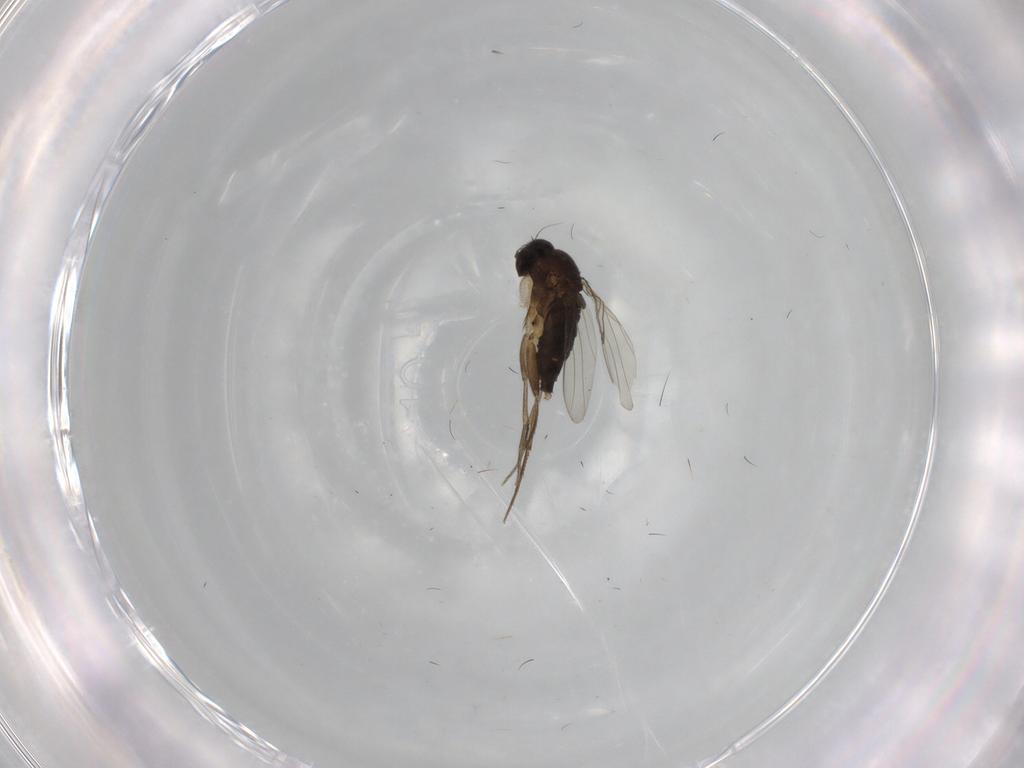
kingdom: Animalia
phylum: Arthropoda
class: Insecta
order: Diptera
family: Phoridae
